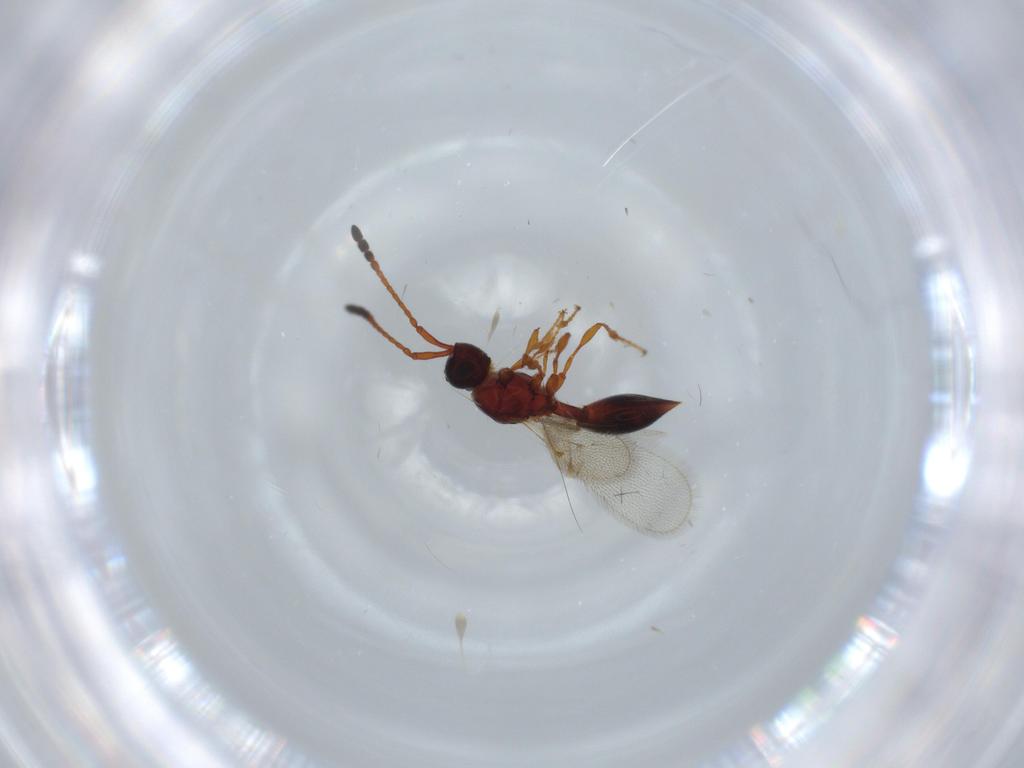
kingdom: Animalia
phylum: Arthropoda
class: Insecta
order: Hymenoptera
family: Diapriidae
